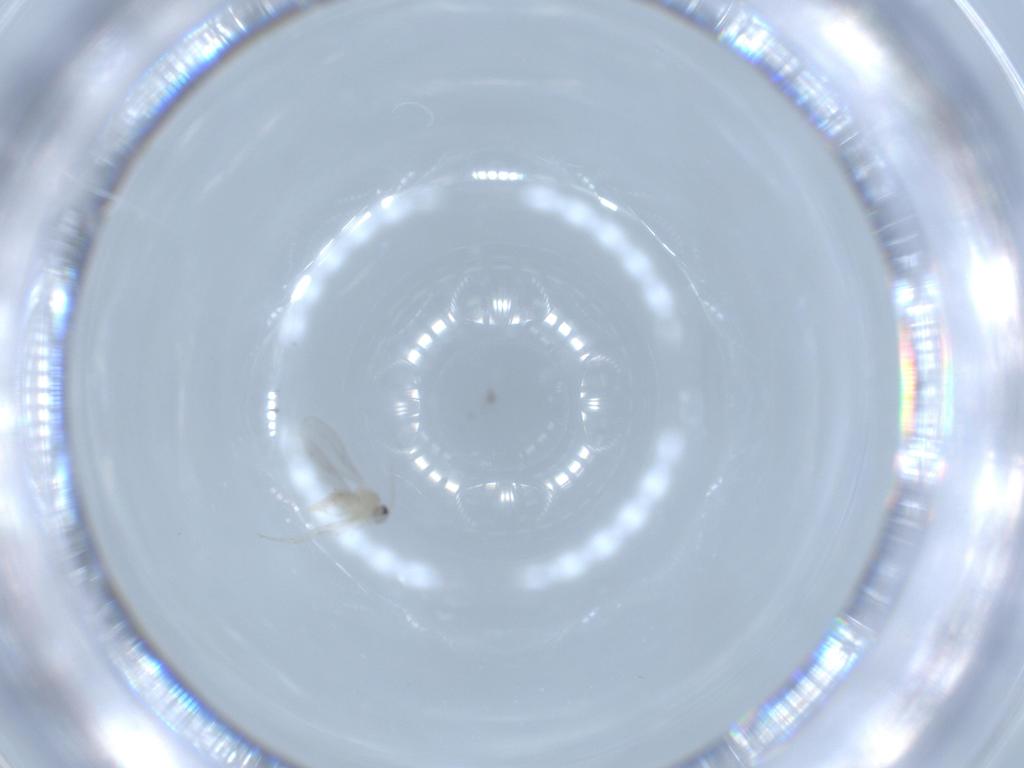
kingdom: Animalia
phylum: Arthropoda
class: Insecta
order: Diptera
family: Cecidomyiidae
